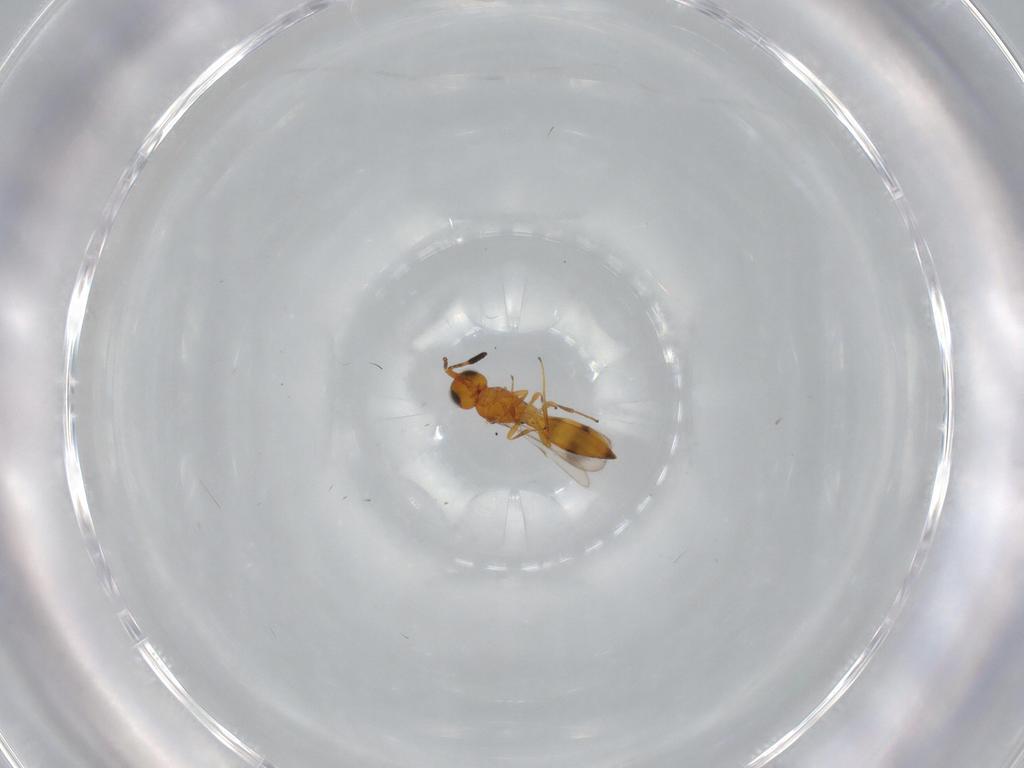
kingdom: Animalia
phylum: Arthropoda
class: Insecta
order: Hymenoptera
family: Scelionidae
